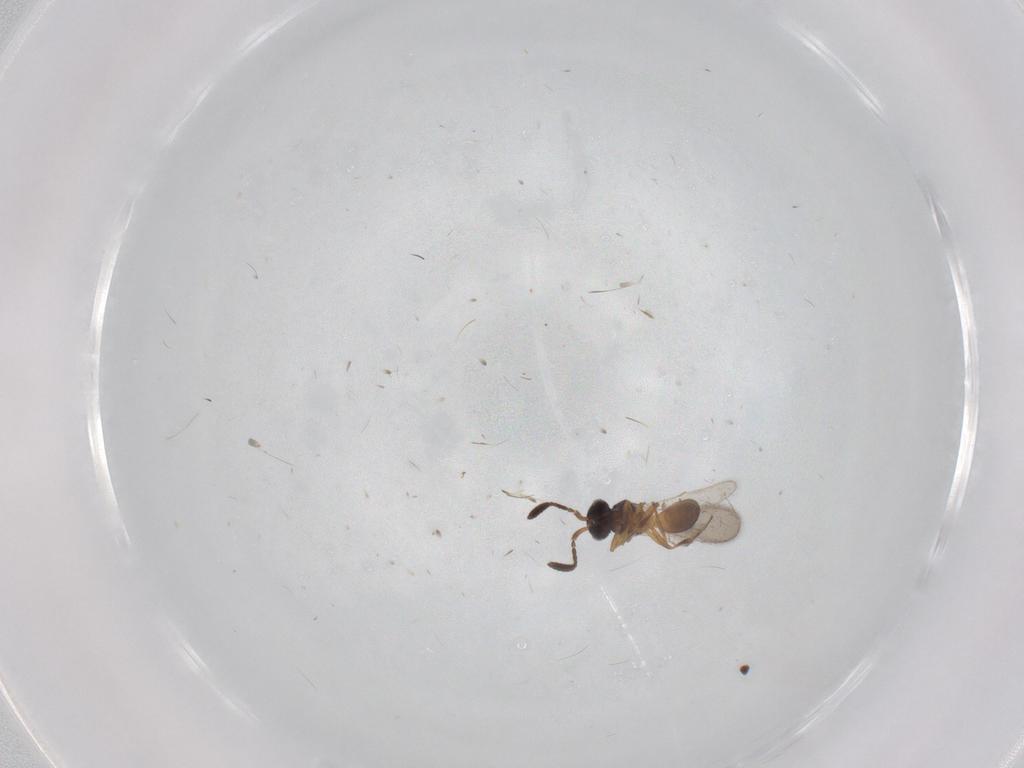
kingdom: Animalia
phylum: Arthropoda
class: Insecta
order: Hymenoptera
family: Scelionidae
